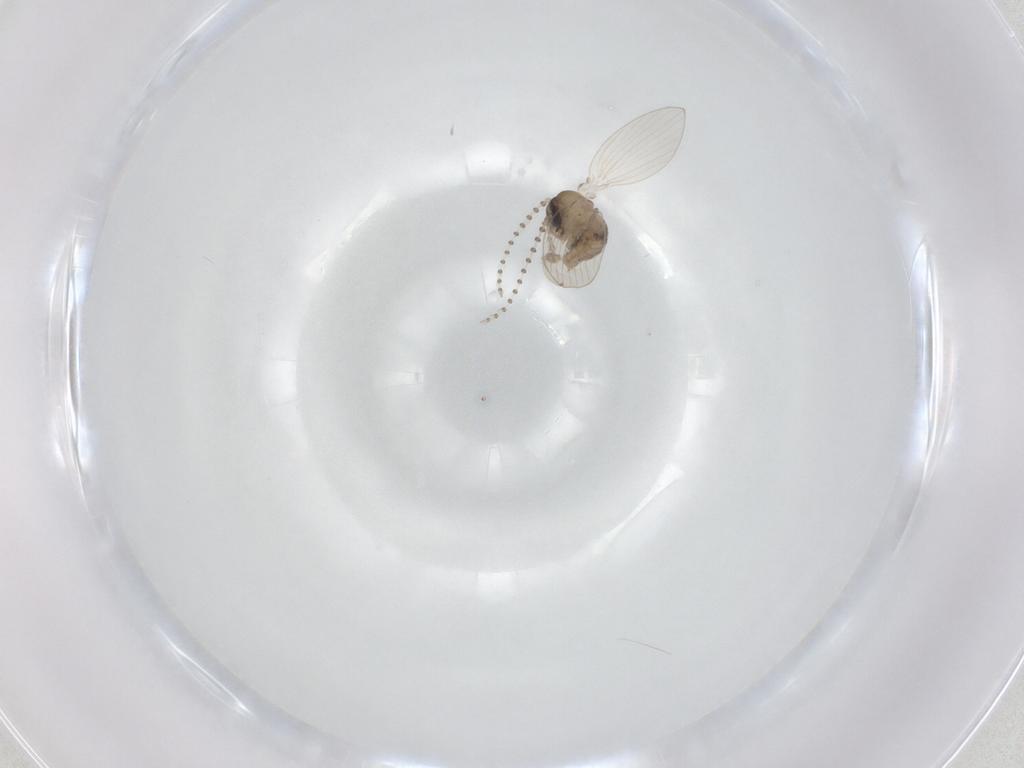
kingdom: Animalia
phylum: Arthropoda
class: Insecta
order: Diptera
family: Psychodidae
